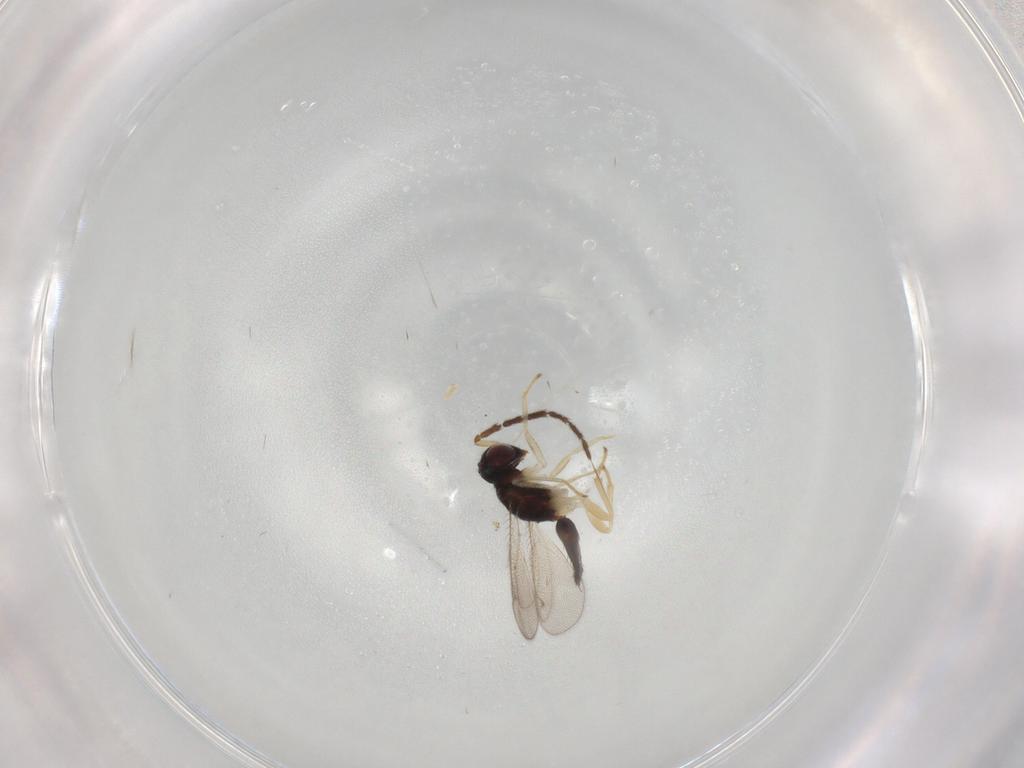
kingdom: Animalia
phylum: Arthropoda
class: Insecta
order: Hymenoptera
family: Eulophidae
